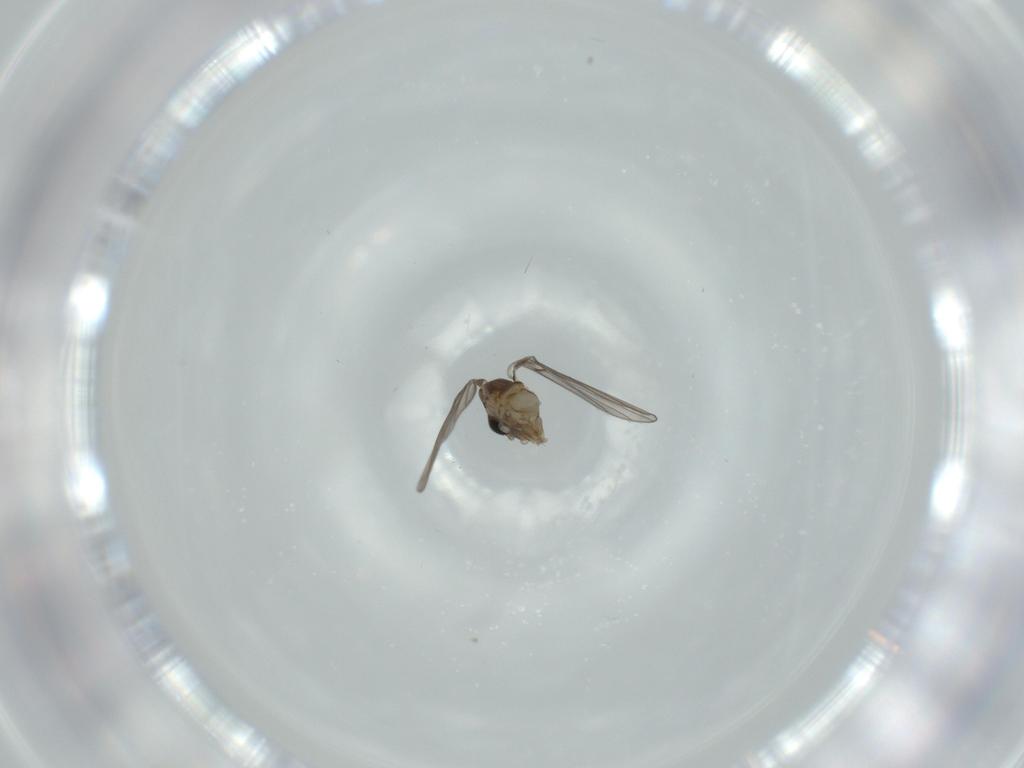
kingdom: Animalia
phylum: Arthropoda
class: Insecta
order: Diptera
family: Psychodidae
